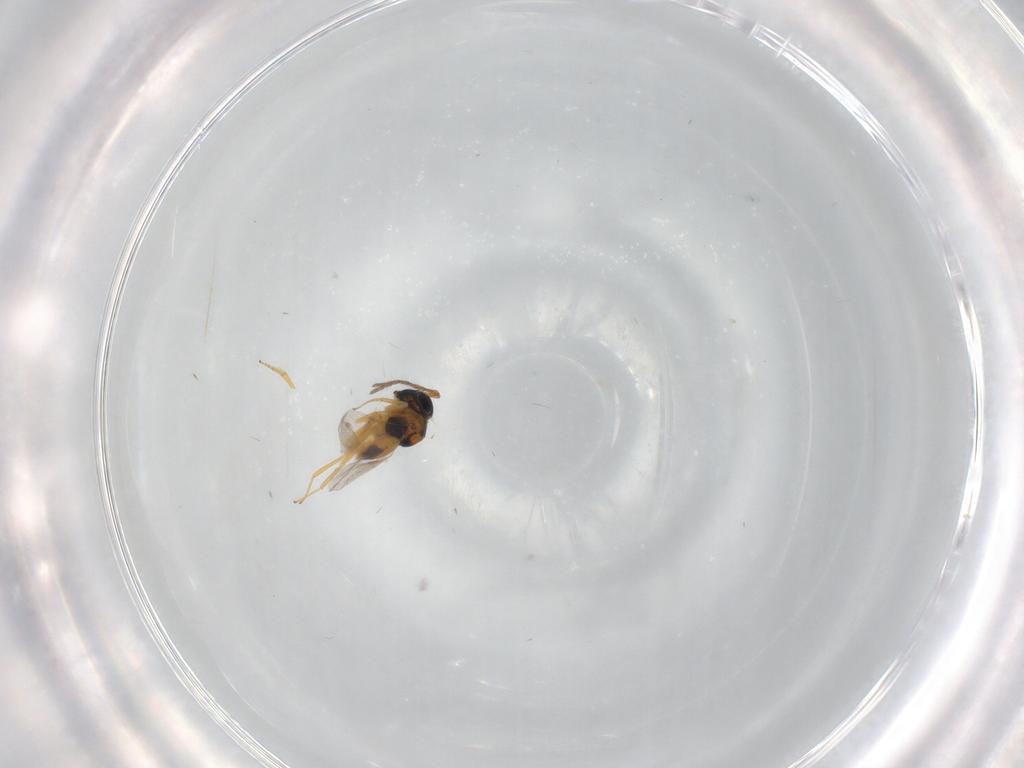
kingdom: Animalia
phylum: Arthropoda
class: Insecta
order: Hymenoptera
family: Encyrtidae
